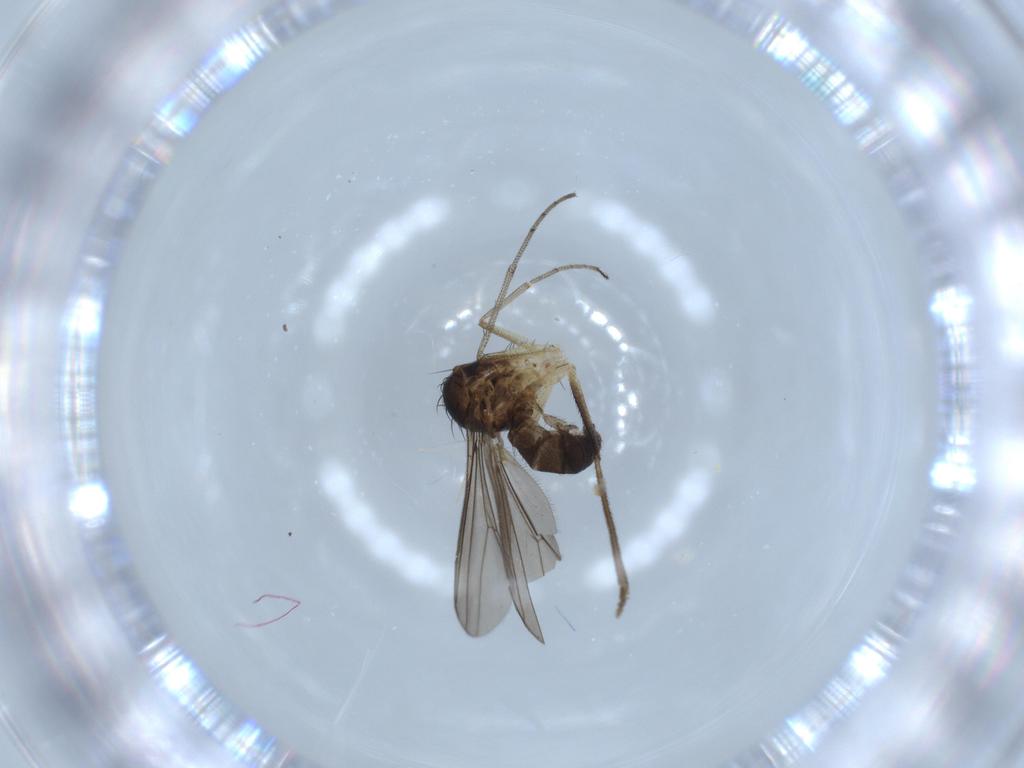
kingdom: Animalia
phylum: Arthropoda
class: Insecta
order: Diptera
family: Dolichopodidae
